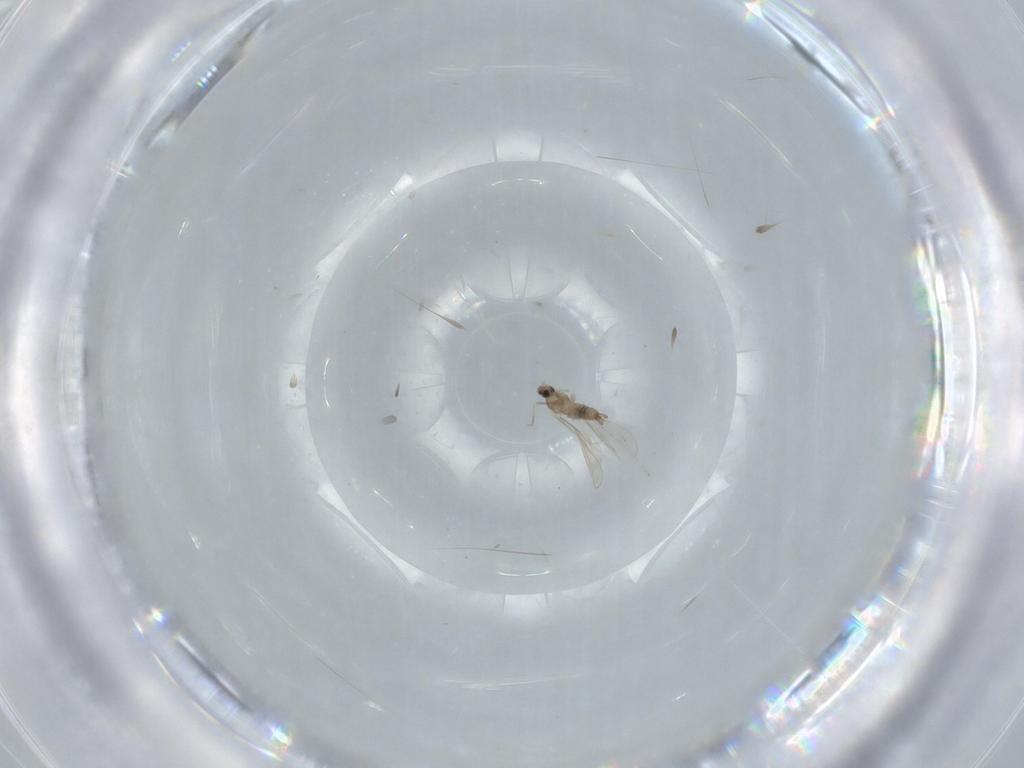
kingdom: Animalia
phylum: Arthropoda
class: Insecta
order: Diptera
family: Cecidomyiidae
